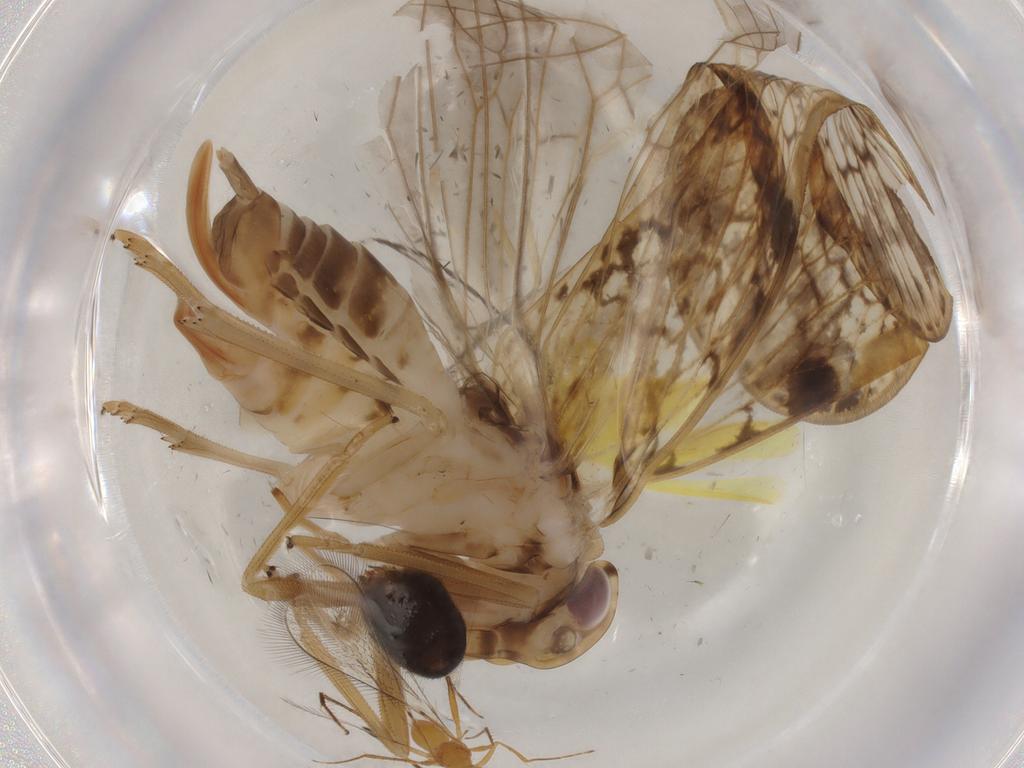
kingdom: Animalia
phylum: Arthropoda
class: Insecta
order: Hemiptera
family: Cixiidae
